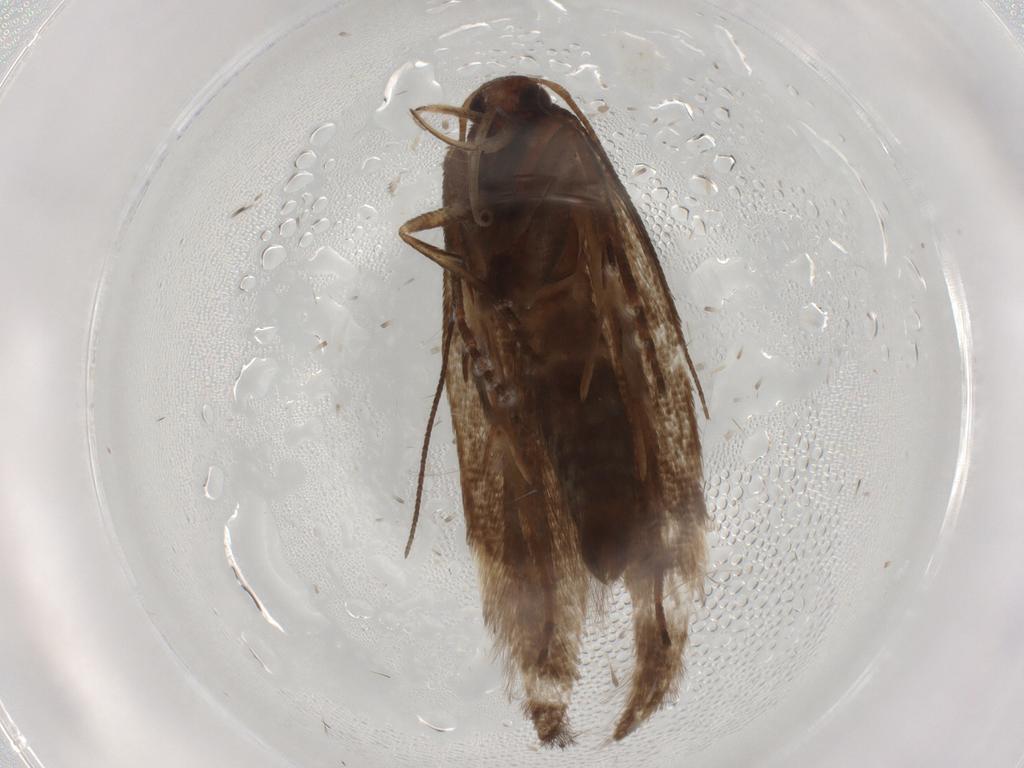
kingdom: Animalia
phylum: Arthropoda
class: Insecta
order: Lepidoptera
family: Gelechiidae
